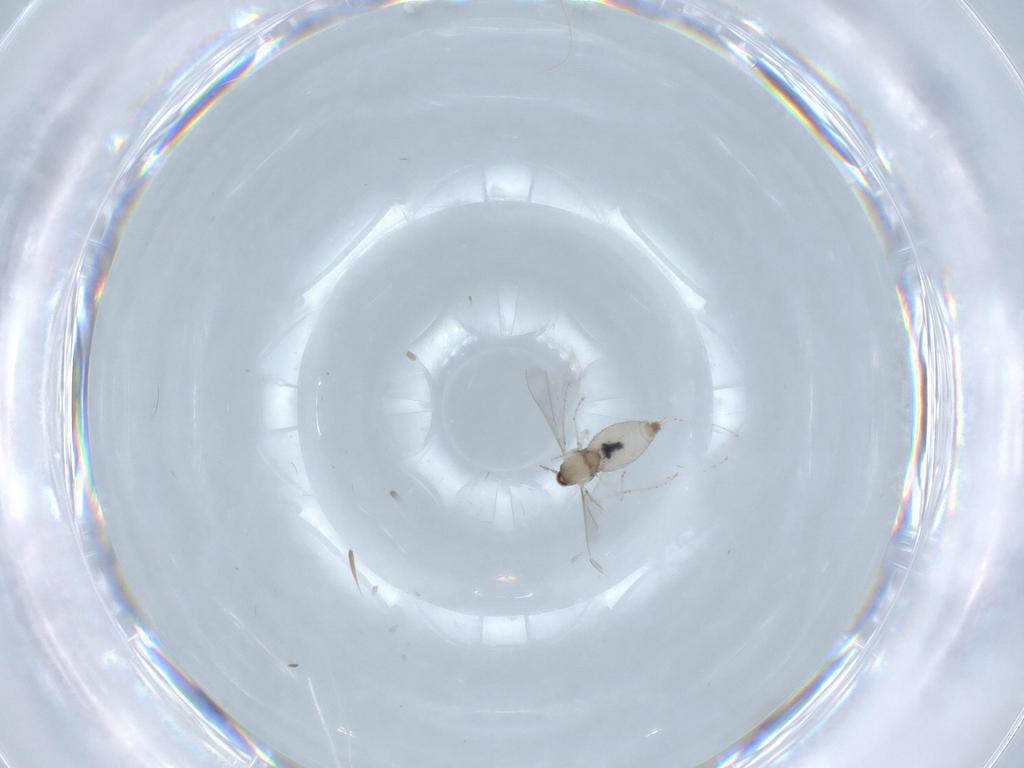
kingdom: Animalia
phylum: Arthropoda
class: Insecta
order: Diptera
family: Cecidomyiidae
